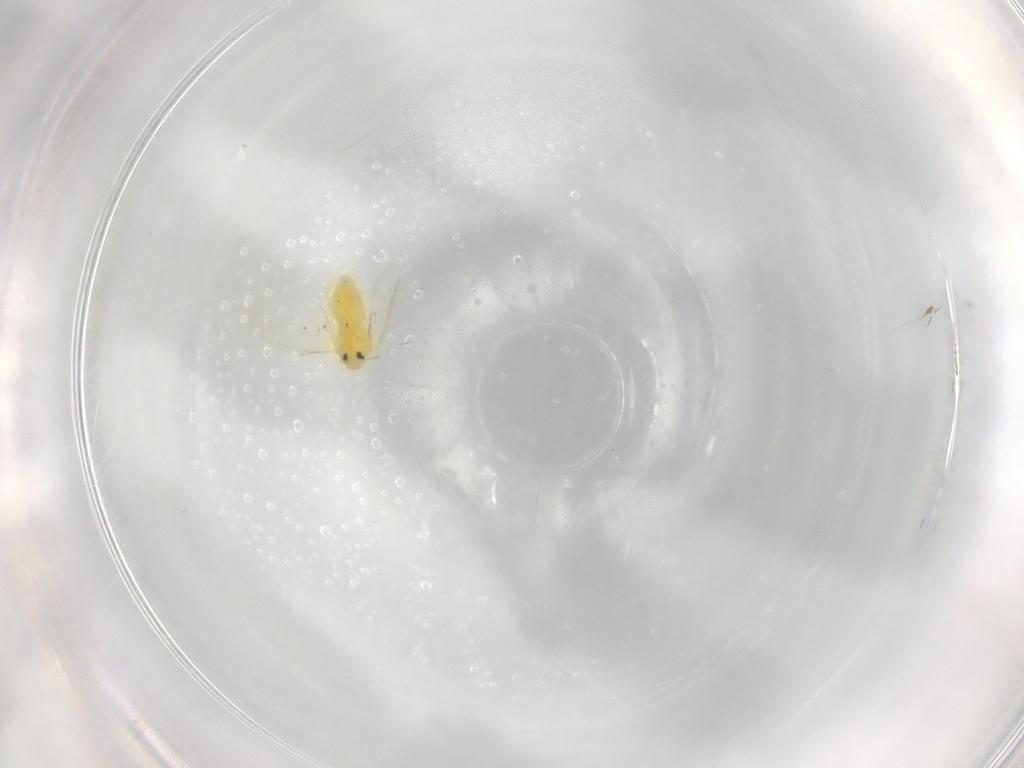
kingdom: Animalia
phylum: Arthropoda
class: Insecta
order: Hemiptera
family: Aleyrodidae
